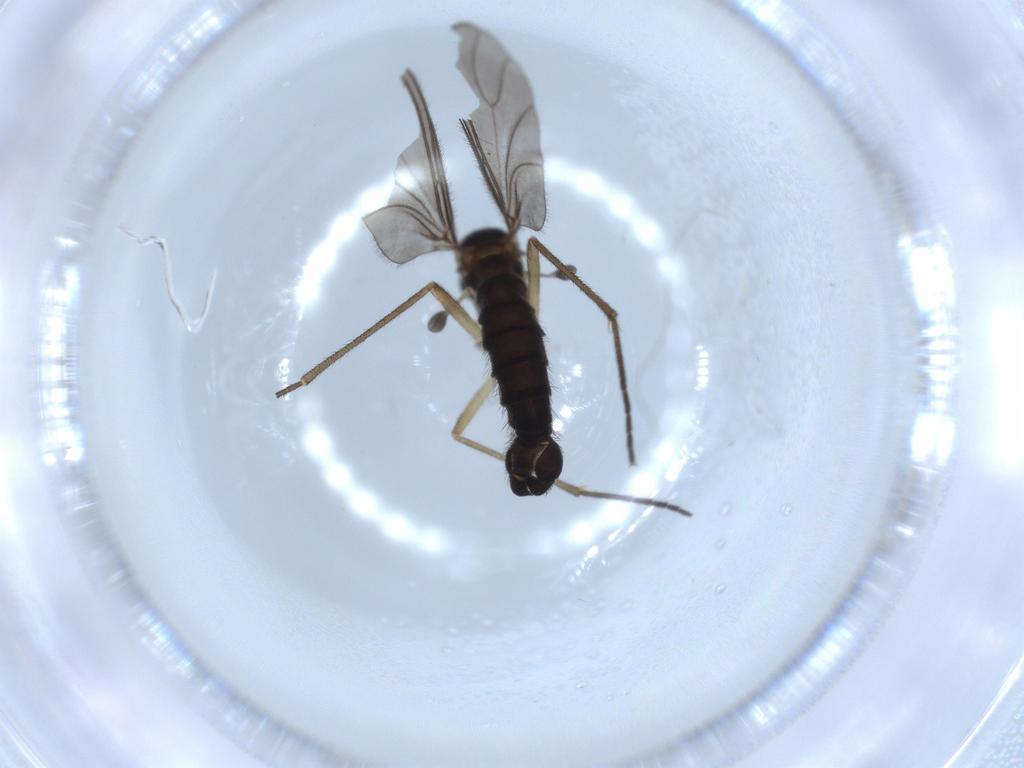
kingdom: Animalia
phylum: Arthropoda
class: Insecta
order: Diptera
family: Sciaridae
